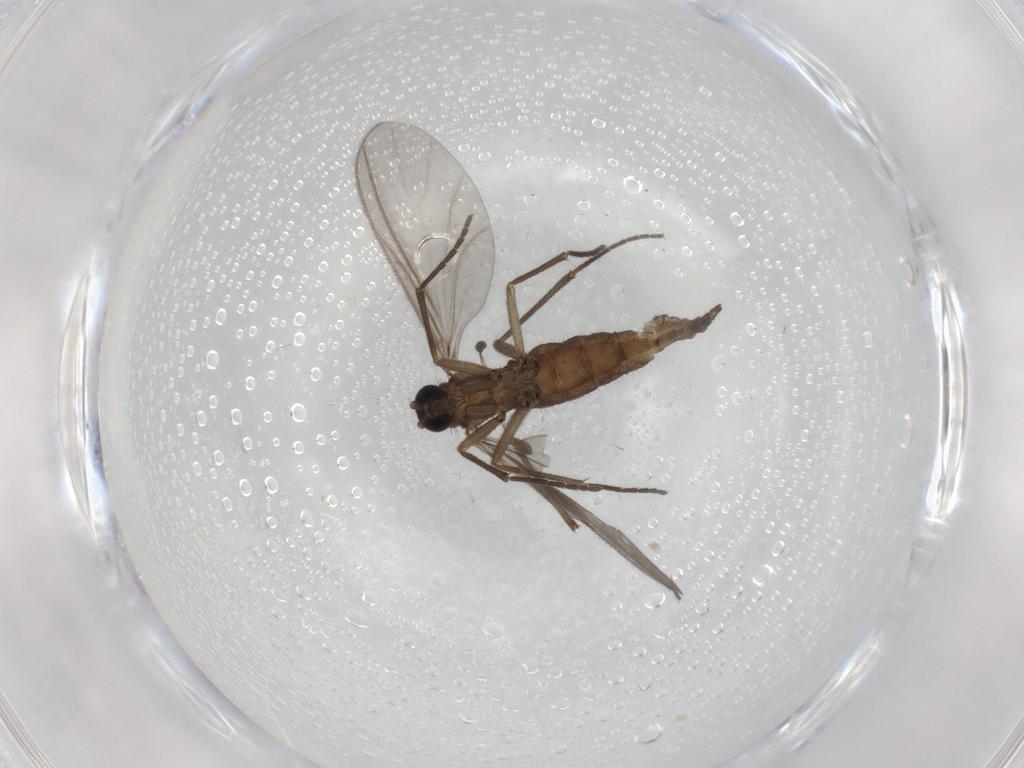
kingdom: Animalia
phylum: Arthropoda
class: Insecta
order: Diptera
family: Sciaridae
